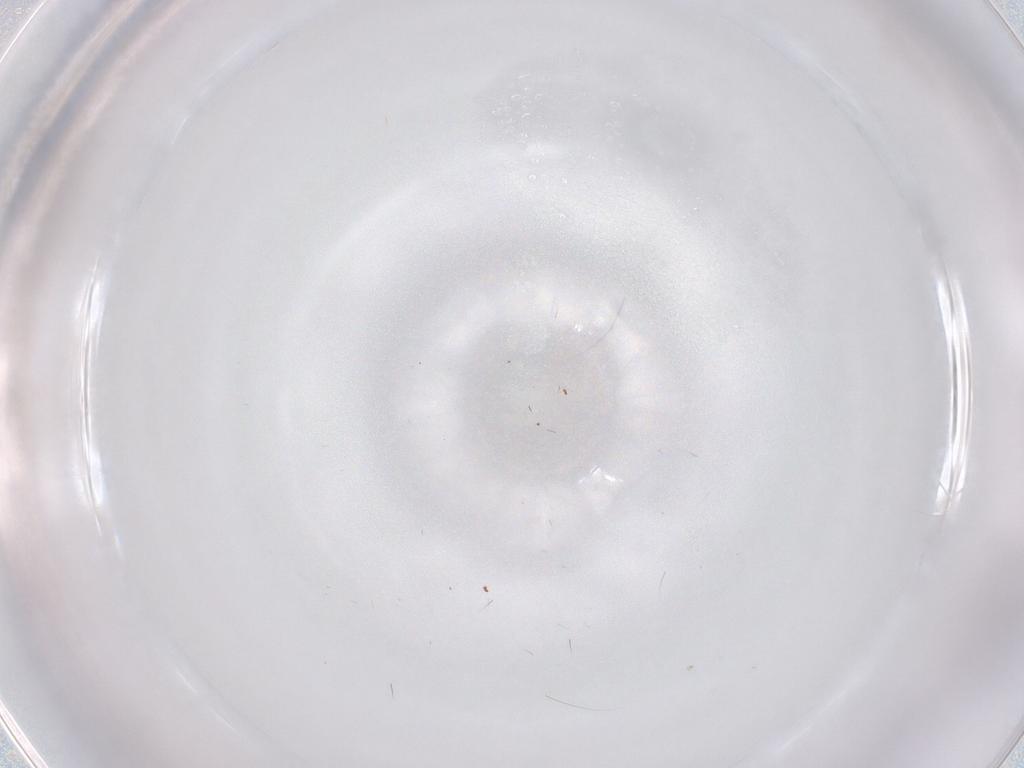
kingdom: Animalia
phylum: Arthropoda
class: Insecta
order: Diptera
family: Chironomidae
